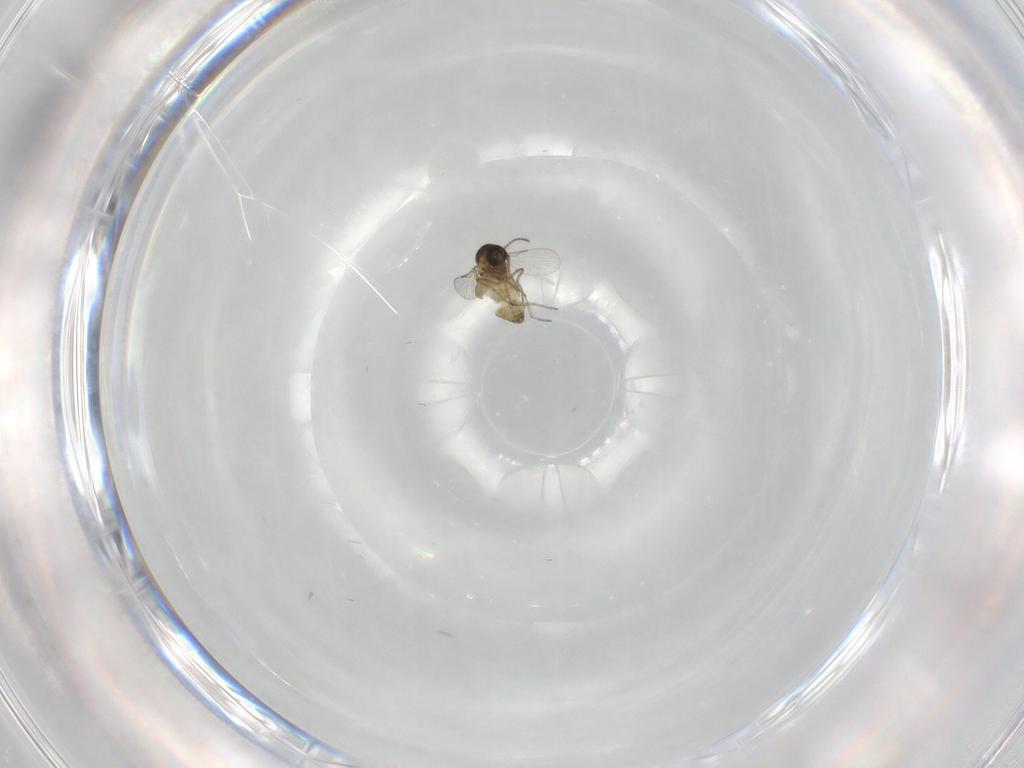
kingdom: Animalia
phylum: Arthropoda
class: Insecta
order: Diptera
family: Ceratopogonidae
